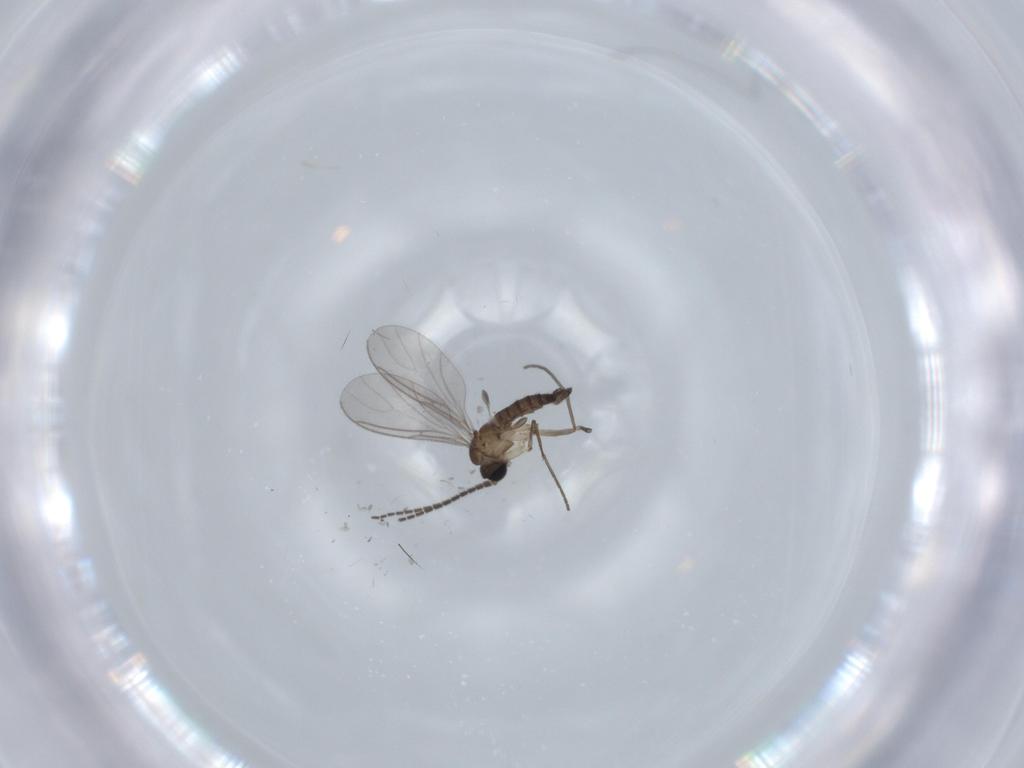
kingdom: Animalia
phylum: Arthropoda
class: Insecta
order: Diptera
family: Sciaridae
